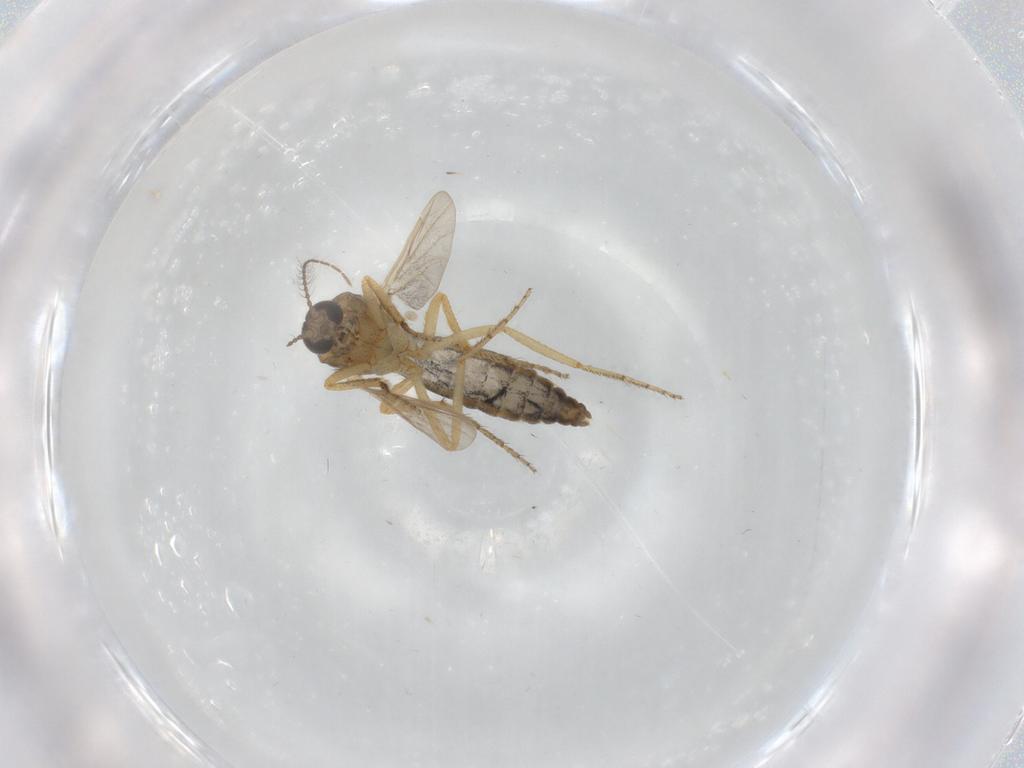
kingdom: Animalia
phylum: Arthropoda
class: Insecta
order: Diptera
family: Ceratopogonidae
